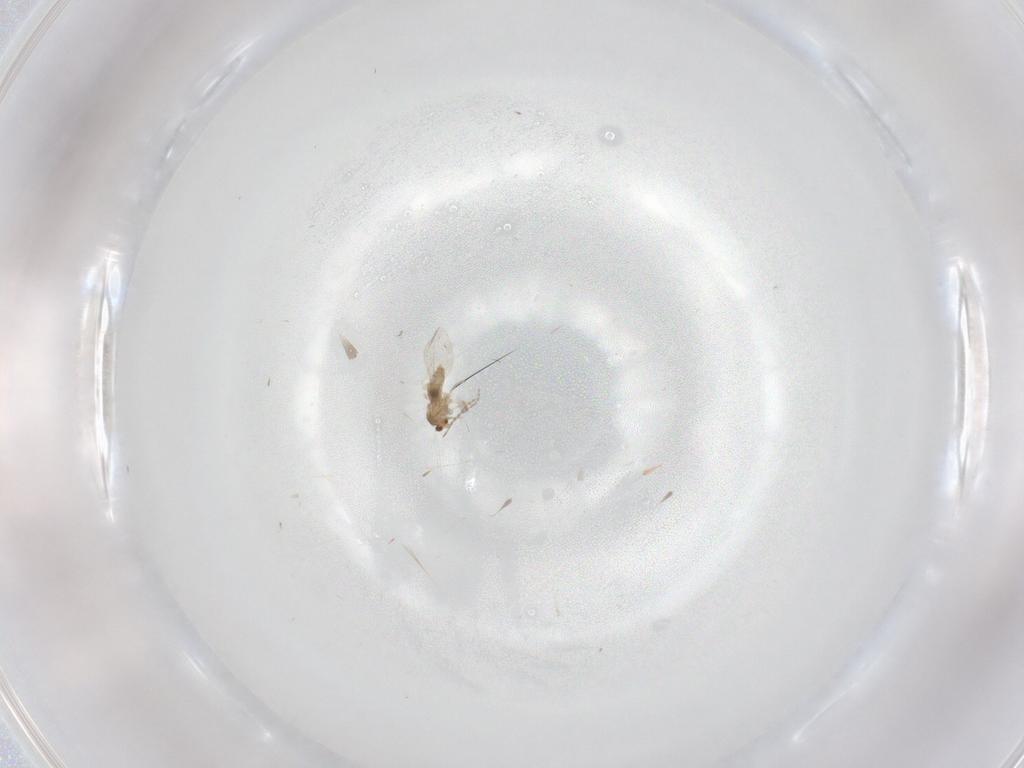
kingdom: Animalia
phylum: Arthropoda
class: Insecta
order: Diptera
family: Cecidomyiidae
